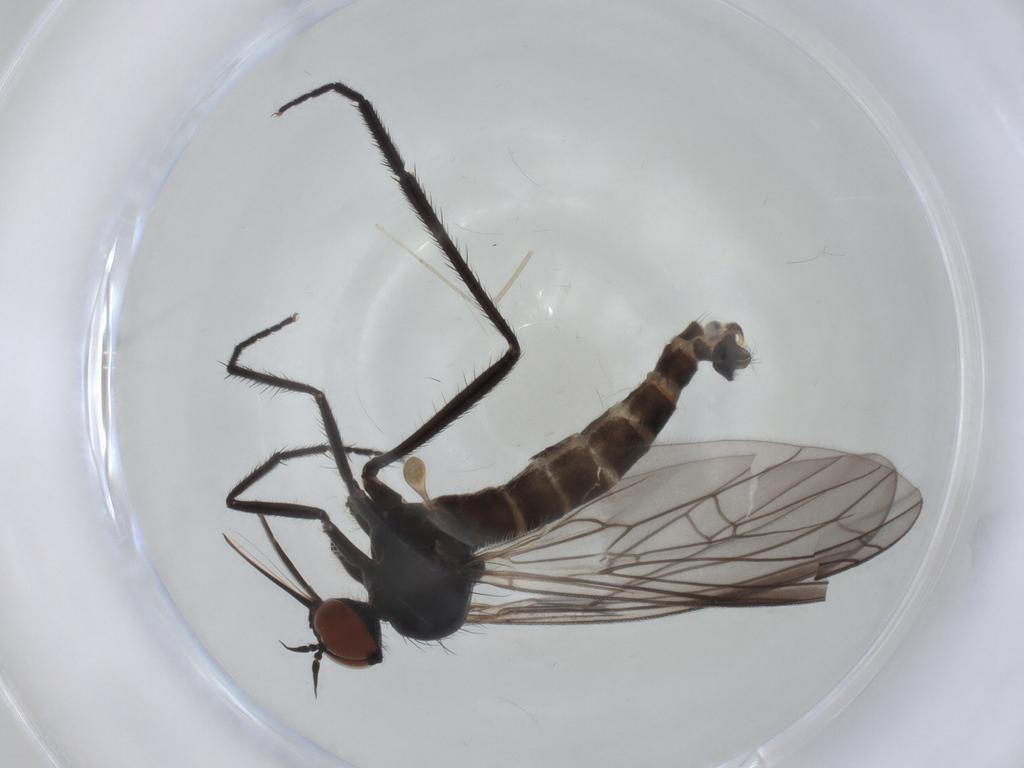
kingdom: Animalia
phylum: Arthropoda
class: Insecta
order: Diptera
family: Empididae
